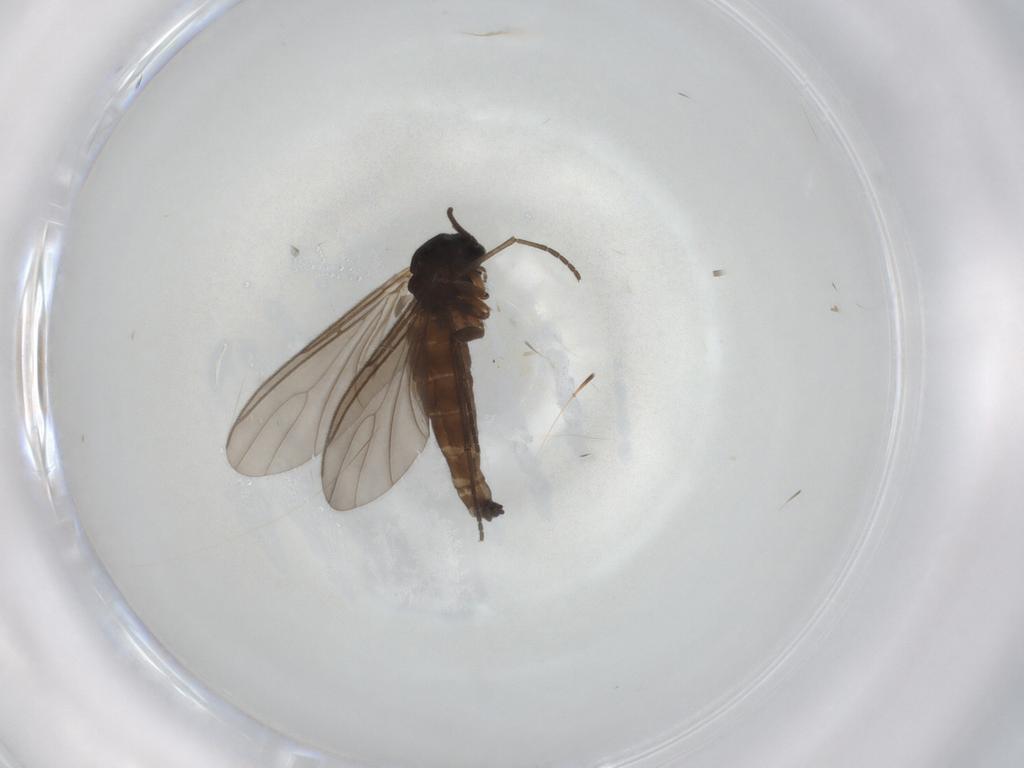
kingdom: Animalia
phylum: Arthropoda
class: Insecta
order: Diptera
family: Sciaridae
